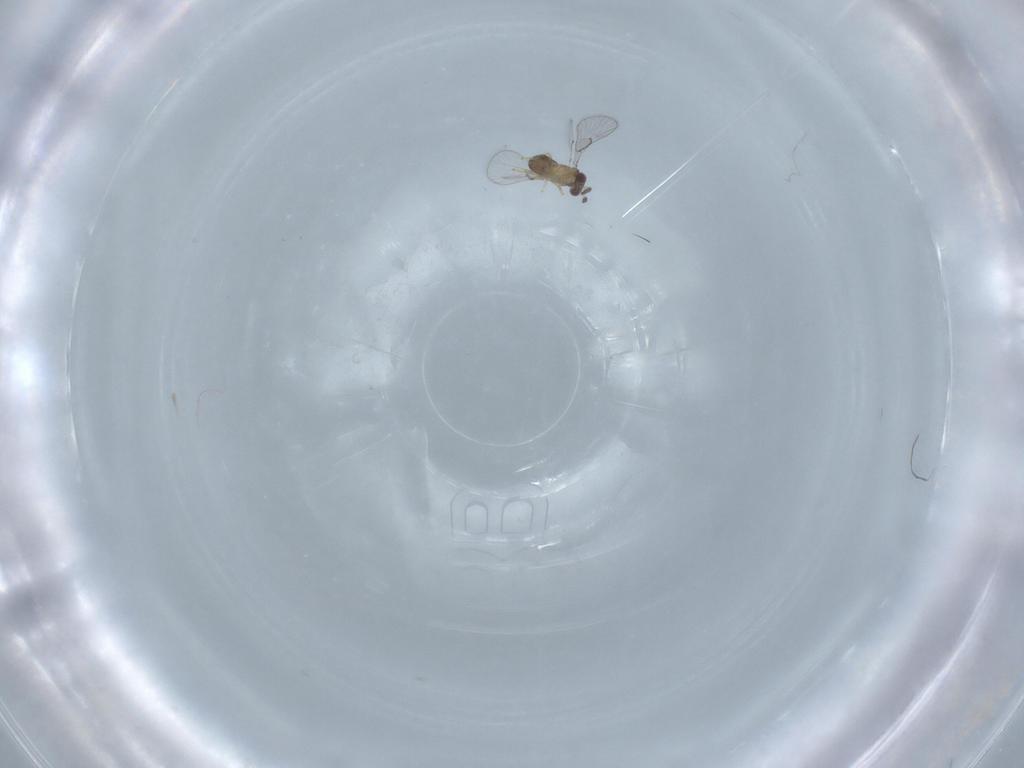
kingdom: Animalia
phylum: Arthropoda
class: Insecta
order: Hymenoptera
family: Trichogrammatidae
